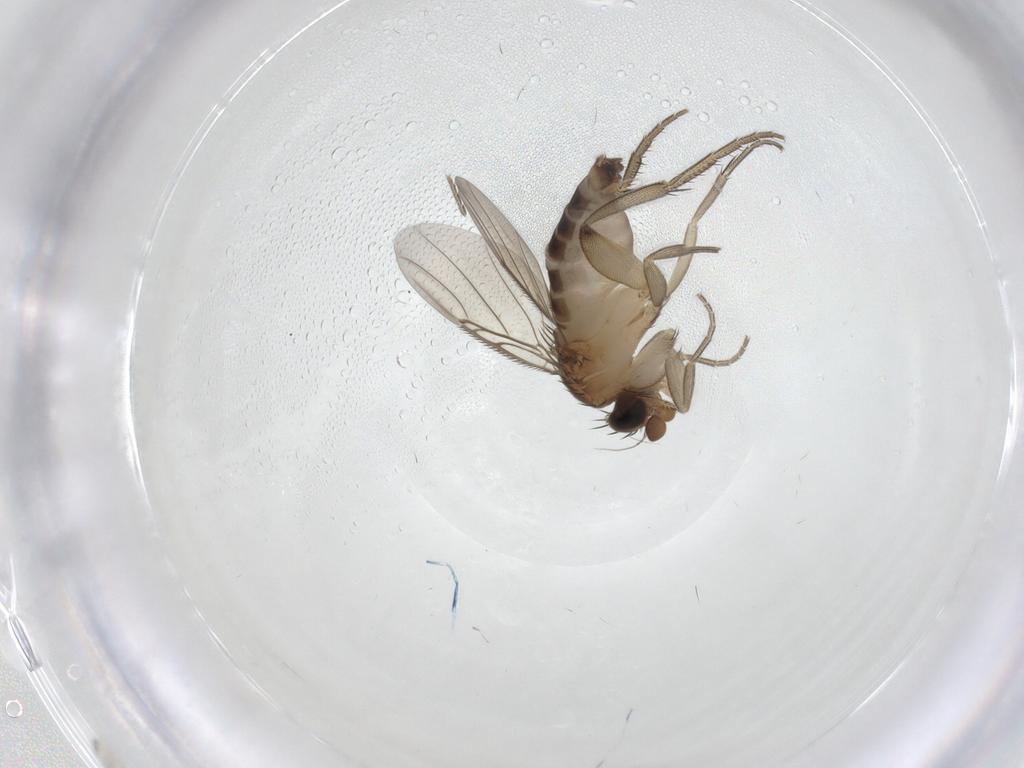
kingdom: Animalia
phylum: Arthropoda
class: Insecta
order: Diptera
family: Phoridae
